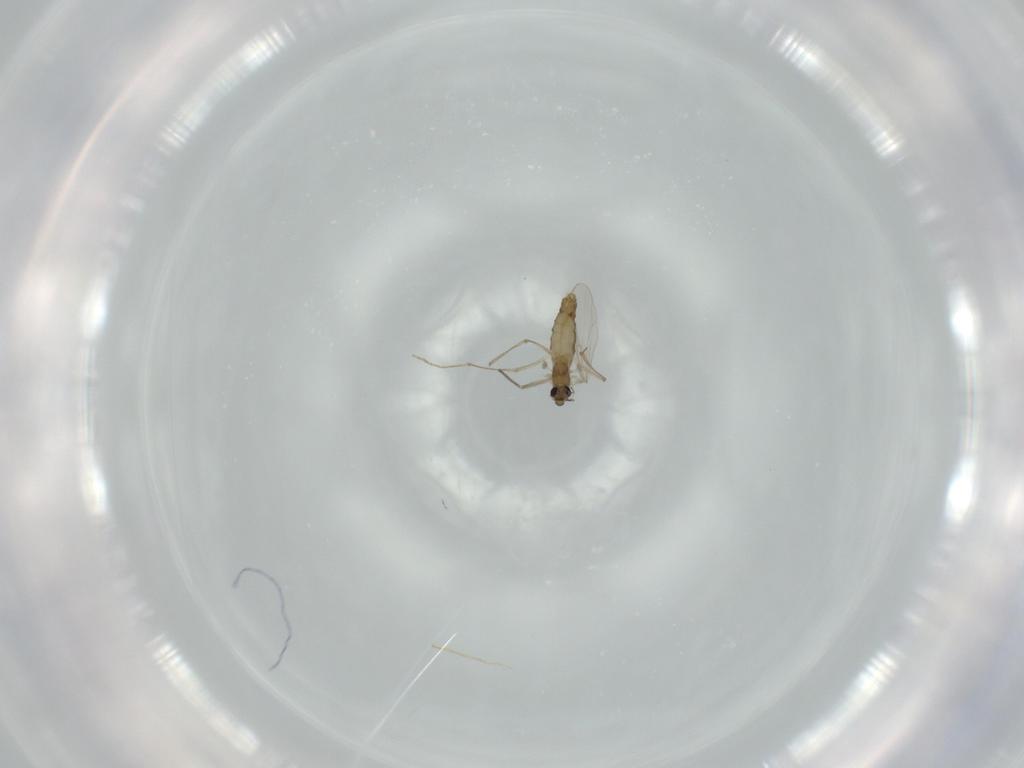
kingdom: Animalia
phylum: Arthropoda
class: Insecta
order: Diptera
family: Chironomidae
